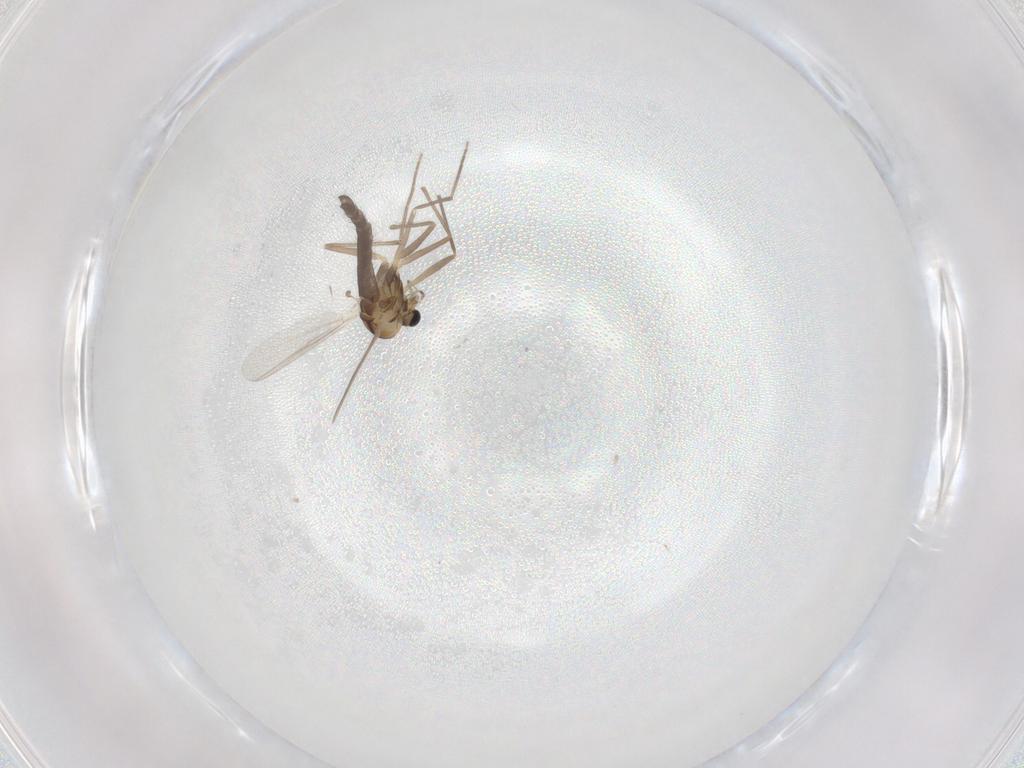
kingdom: Animalia
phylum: Arthropoda
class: Insecta
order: Diptera
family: Chironomidae
